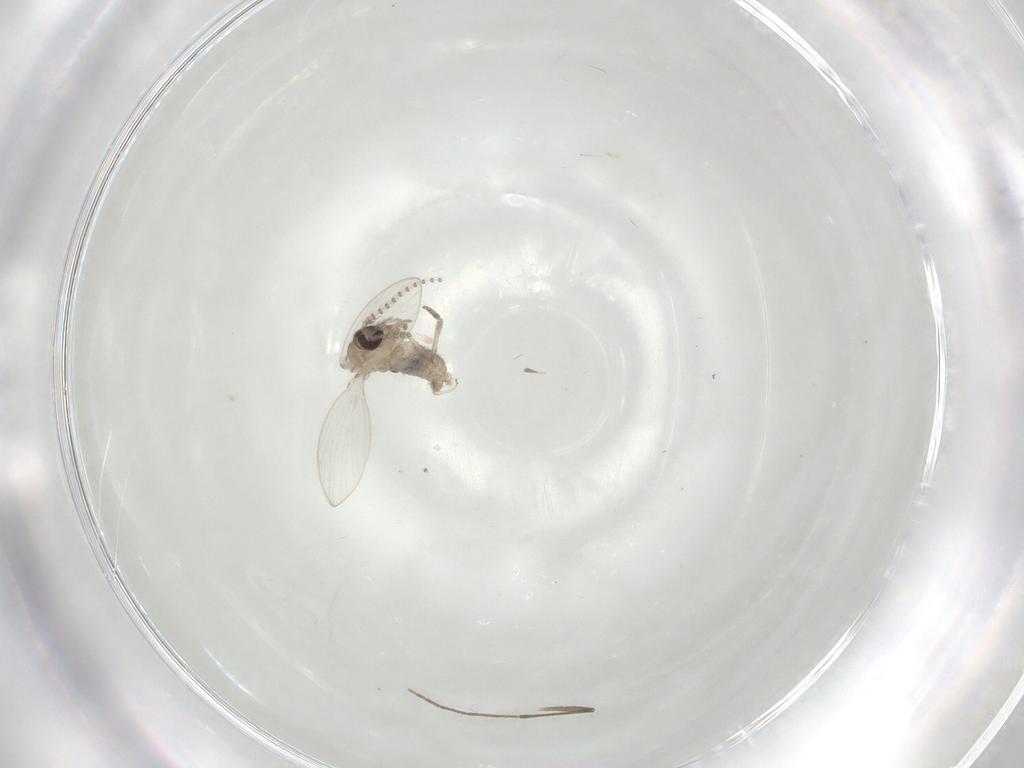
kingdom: Animalia
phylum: Arthropoda
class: Insecta
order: Diptera
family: Psychodidae
